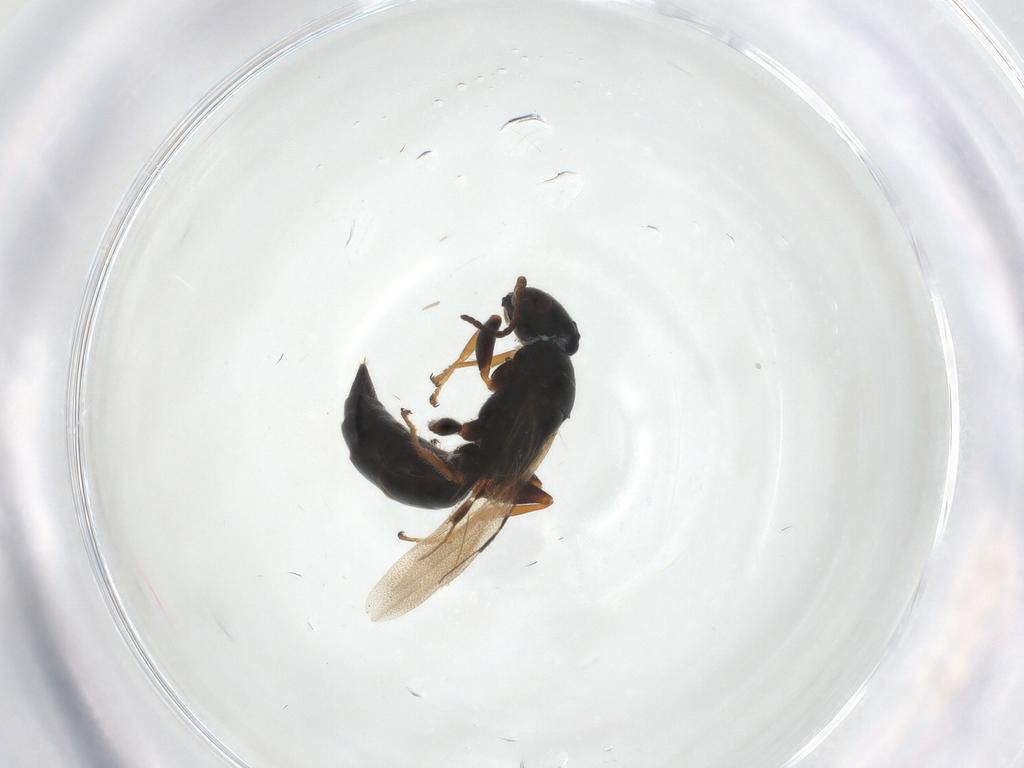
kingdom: Animalia
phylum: Arthropoda
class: Insecta
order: Hymenoptera
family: Bethylidae
